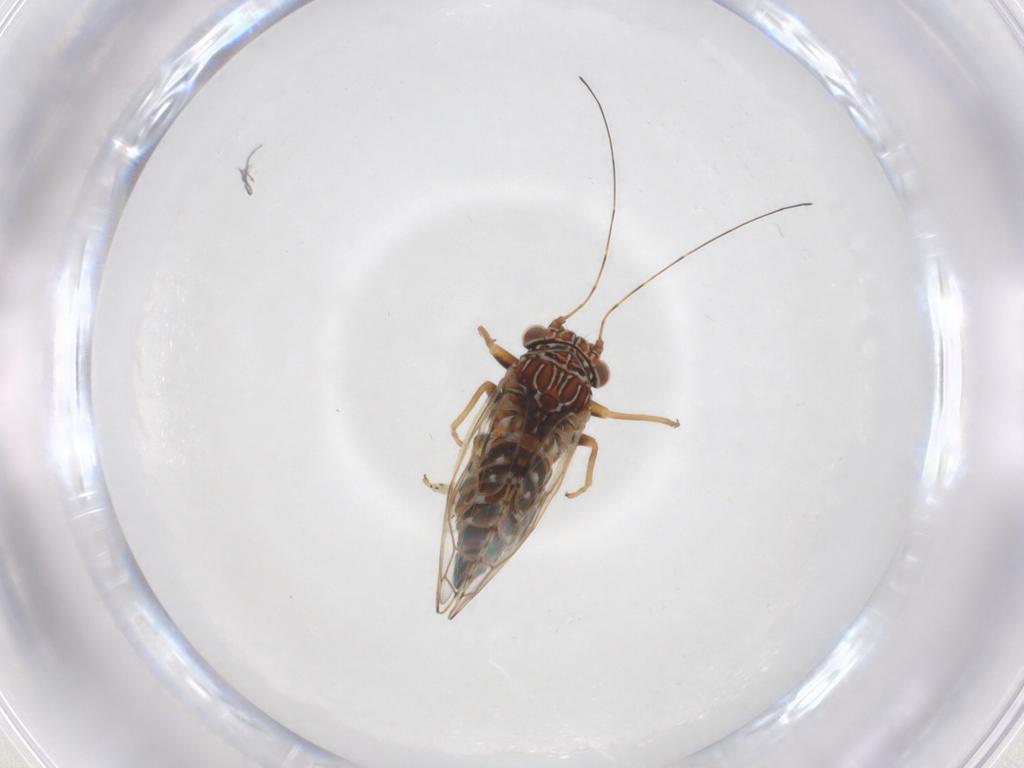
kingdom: Animalia
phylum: Arthropoda
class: Insecta
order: Hemiptera
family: Psylloidea_incertae_sedis
